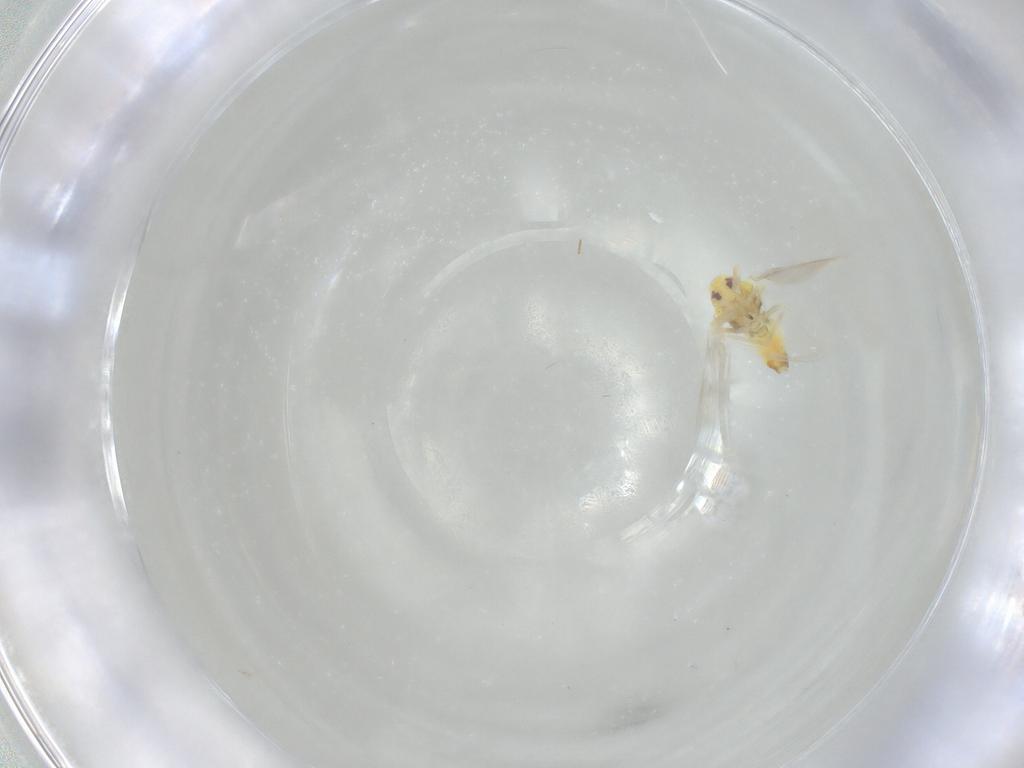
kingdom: Animalia
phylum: Arthropoda
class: Insecta
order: Hemiptera
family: Aleyrodidae
